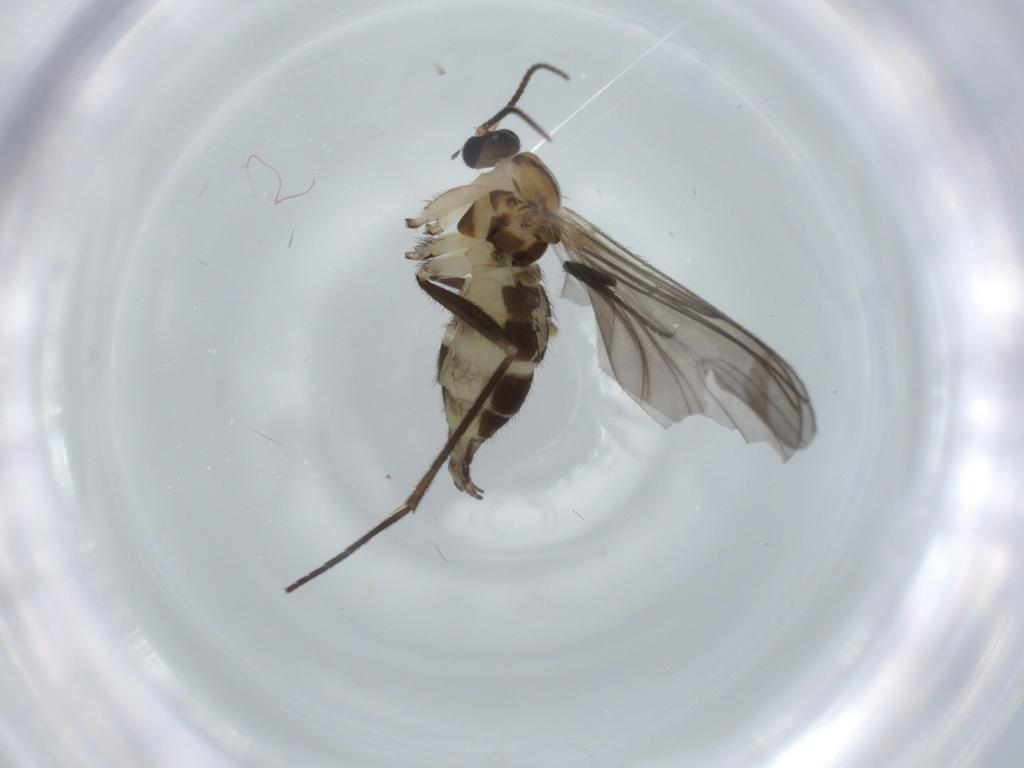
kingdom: Animalia
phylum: Arthropoda
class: Insecta
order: Diptera
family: Sciaridae
